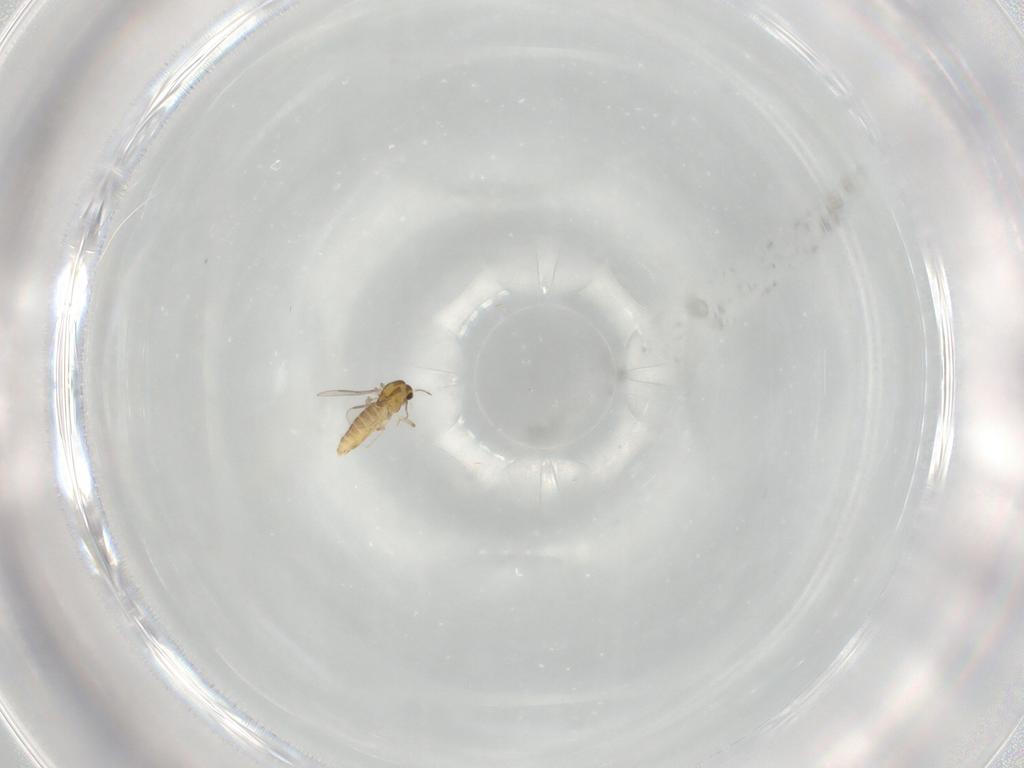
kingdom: Animalia
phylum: Arthropoda
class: Insecta
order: Diptera
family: Chironomidae
